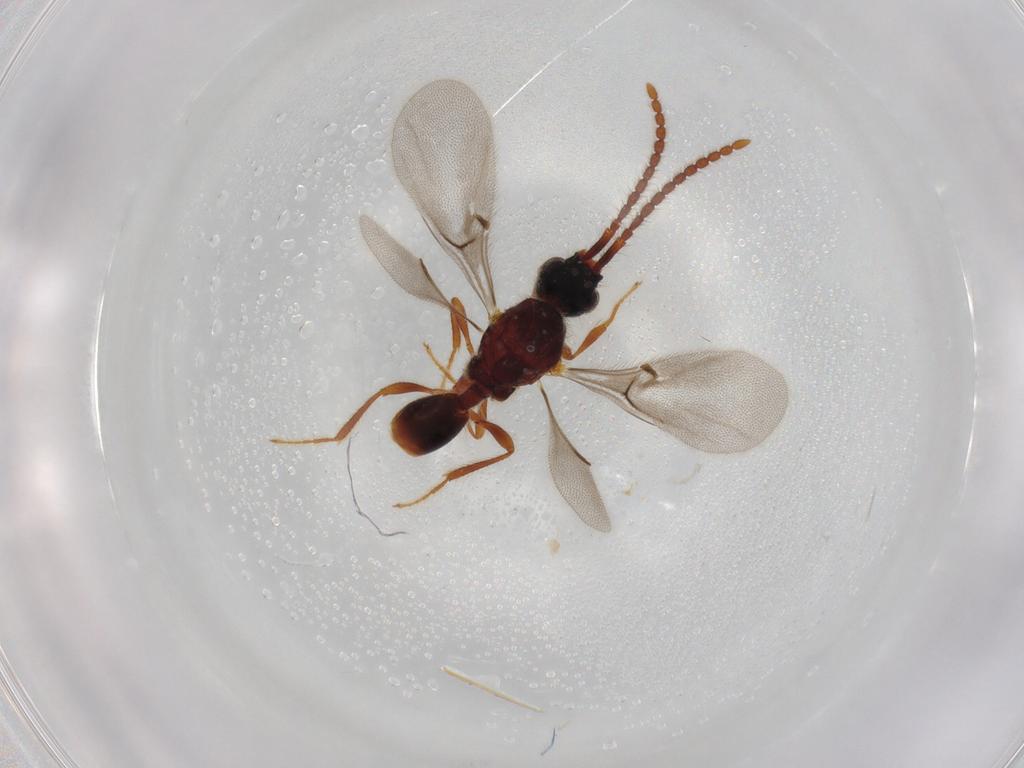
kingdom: Animalia
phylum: Arthropoda
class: Insecta
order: Hymenoptera
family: Diapriidae
